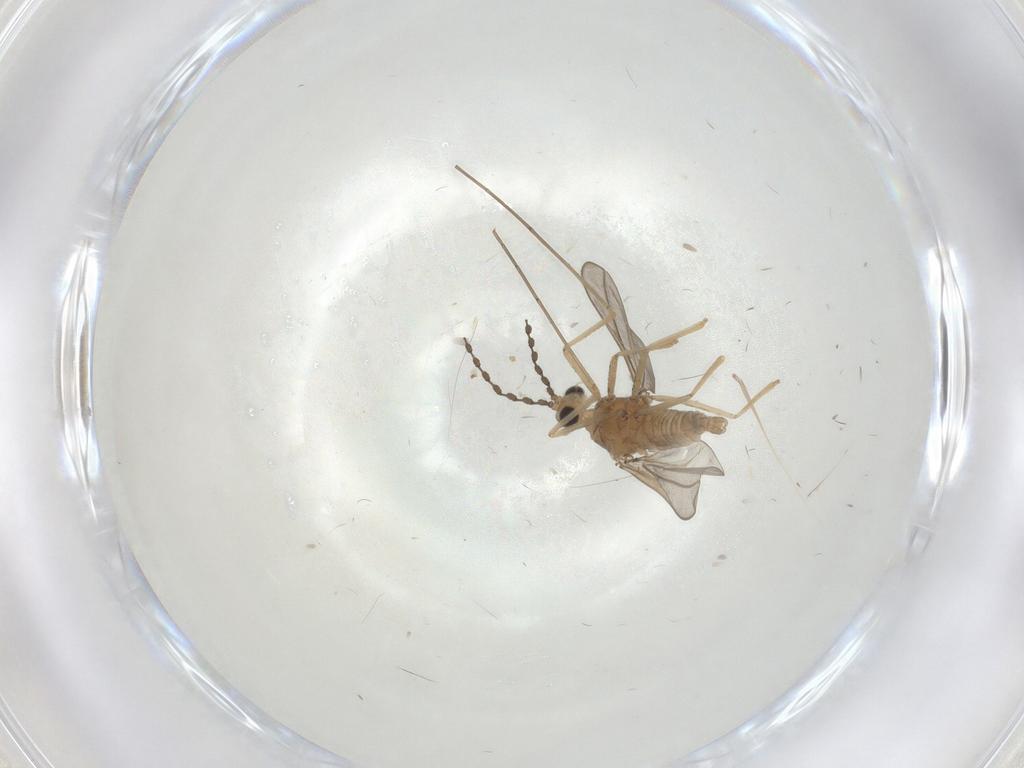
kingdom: Animalia
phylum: Arthropoda
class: Insecta
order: Diptera
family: Cecidomyiidae
